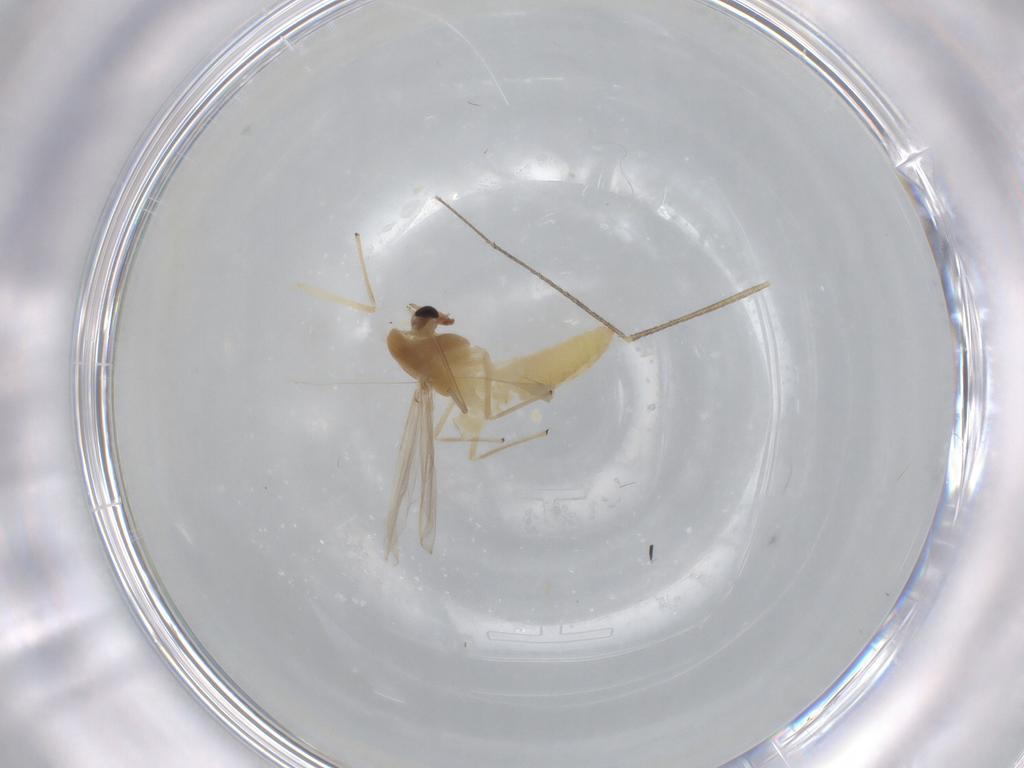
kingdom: Animalia
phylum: Arthropoda
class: Insecta
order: Diptera
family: Chironomidae
